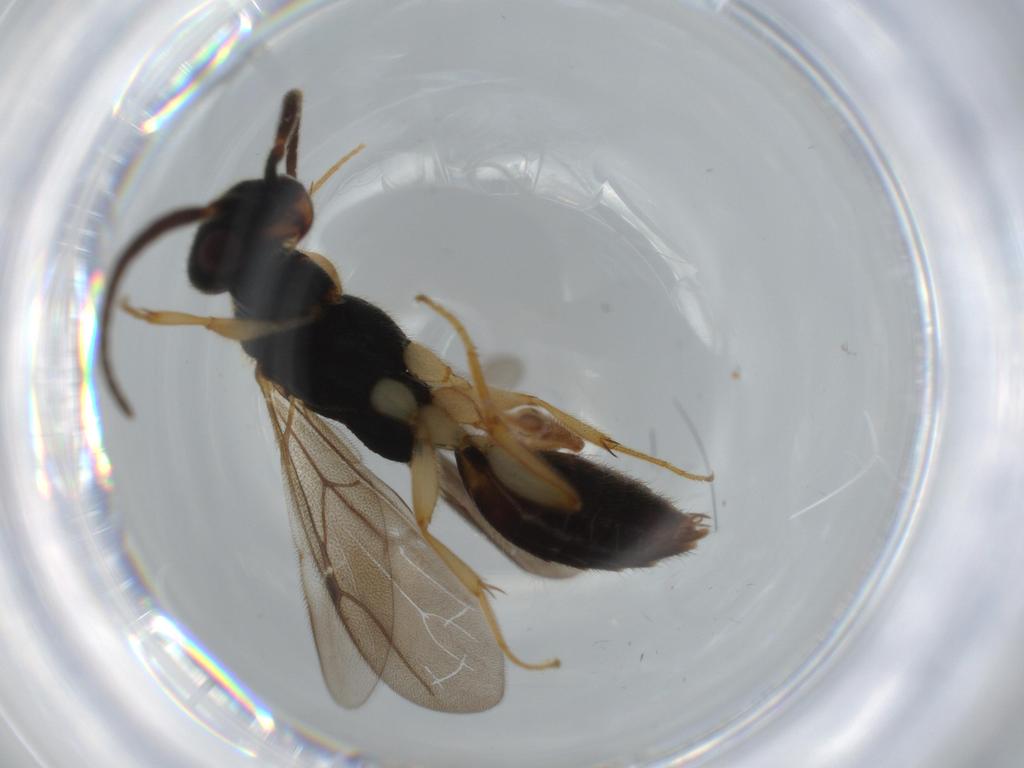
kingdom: Animalia
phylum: Arthropoda
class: Insecta
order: Hymenoptera
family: Bethylidae
